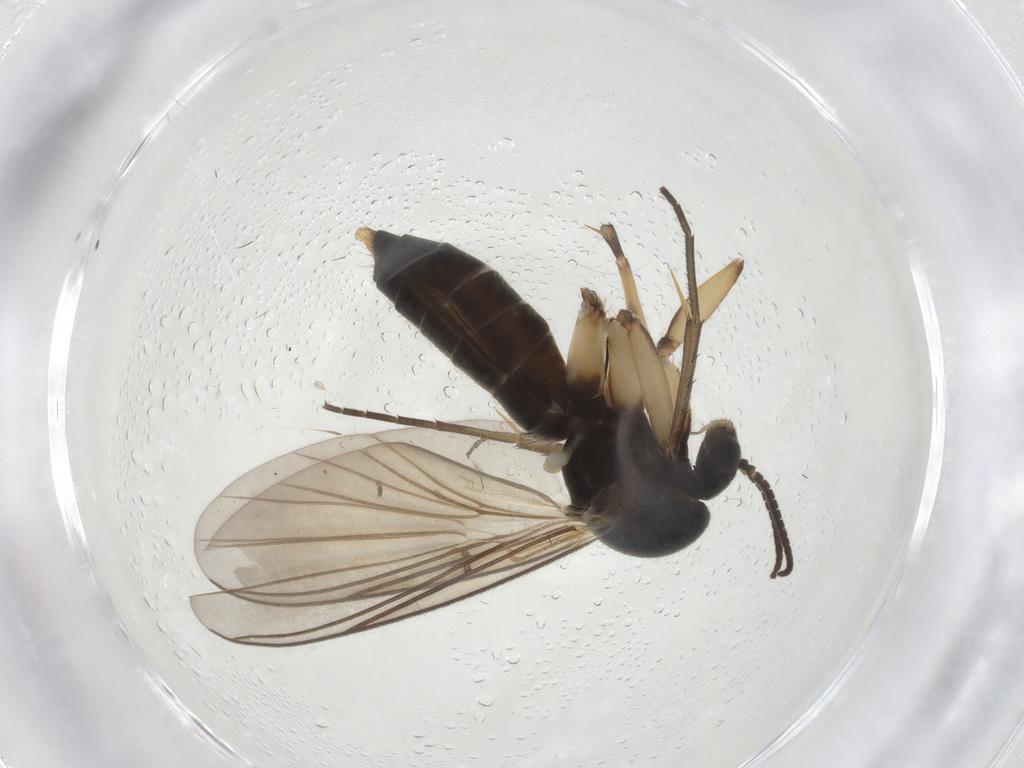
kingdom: Animalia
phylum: Arthropoda
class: Insecta
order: Diptera
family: Mycetophilidae
